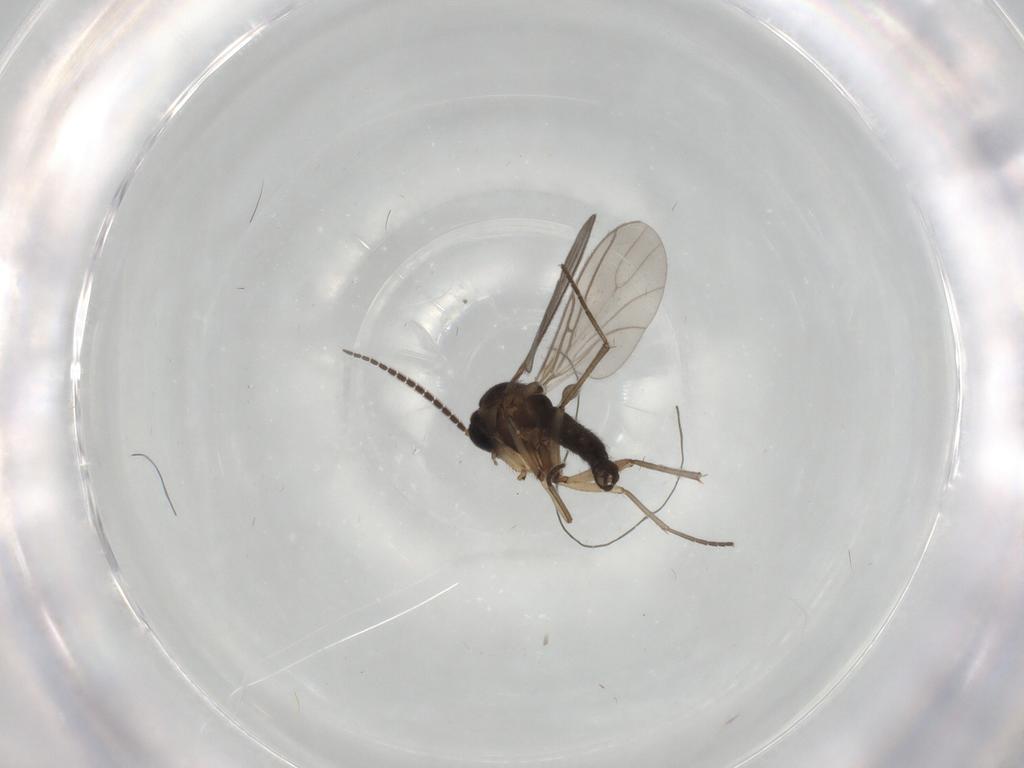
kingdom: Animalia
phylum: Arthropoda
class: Insecta
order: Diptera
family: Sciaridae
